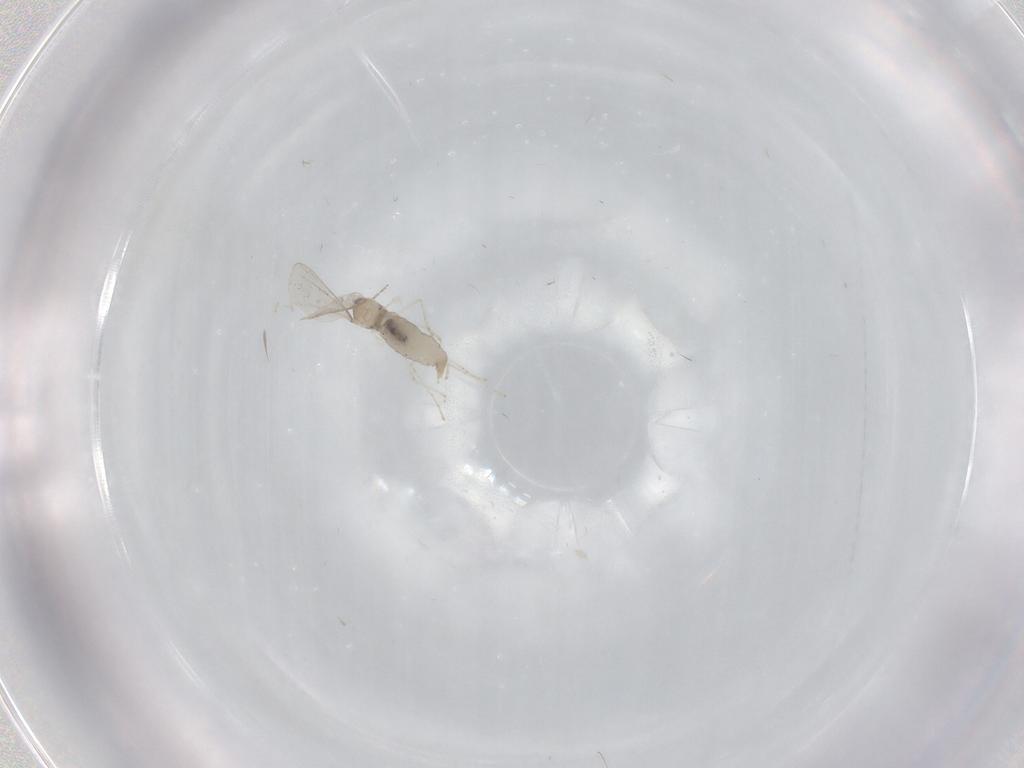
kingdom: Animalia
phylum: Arthropoda
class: Insecta
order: Diptera
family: Cecidomyiidae
